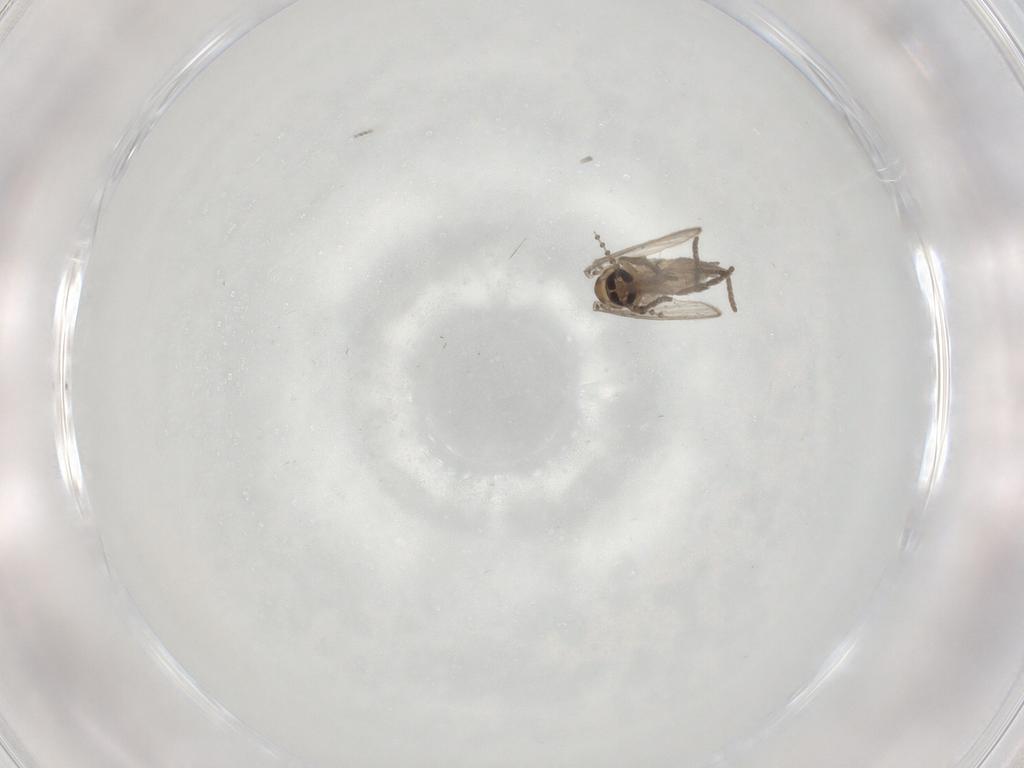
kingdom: Animalia
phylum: Arthropoda
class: Insecta
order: Diptera
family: Psychodidae
